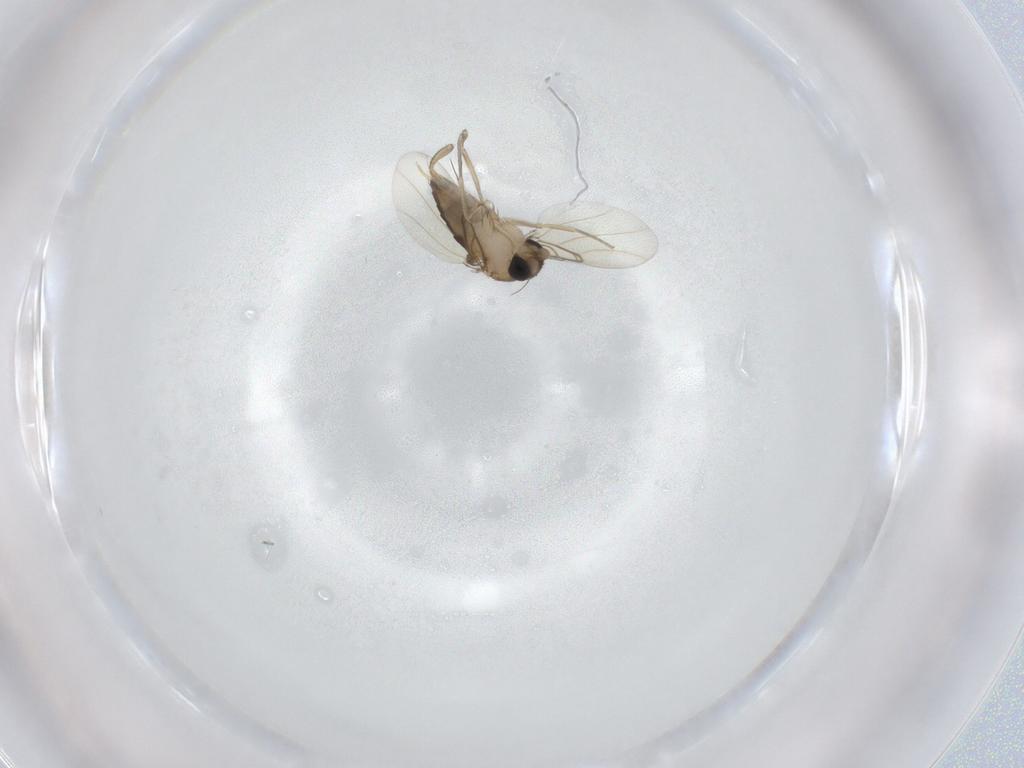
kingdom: Animalia
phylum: Arthropoda
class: Insecta
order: Diptera
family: Phoridae
